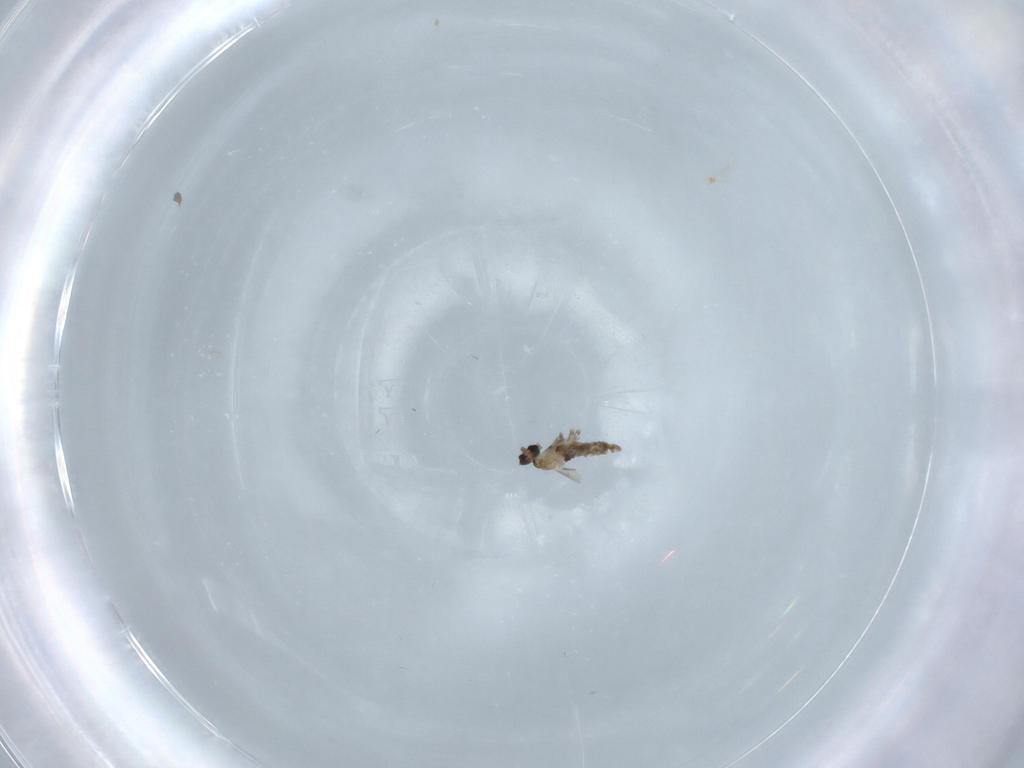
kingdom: Animalia
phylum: Arthropoda
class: Insecta
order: Diptera
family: Cecidomyiidae
